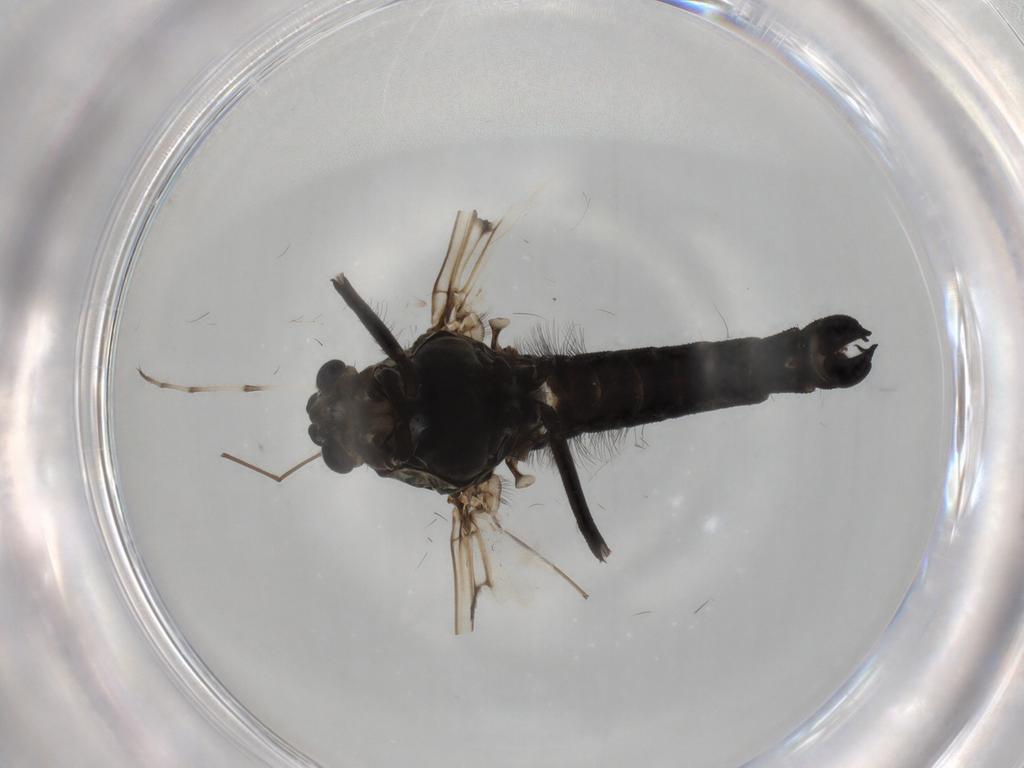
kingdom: Animalia
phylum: Arthropoda
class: Insecta
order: Diptera
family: Chironomidae
